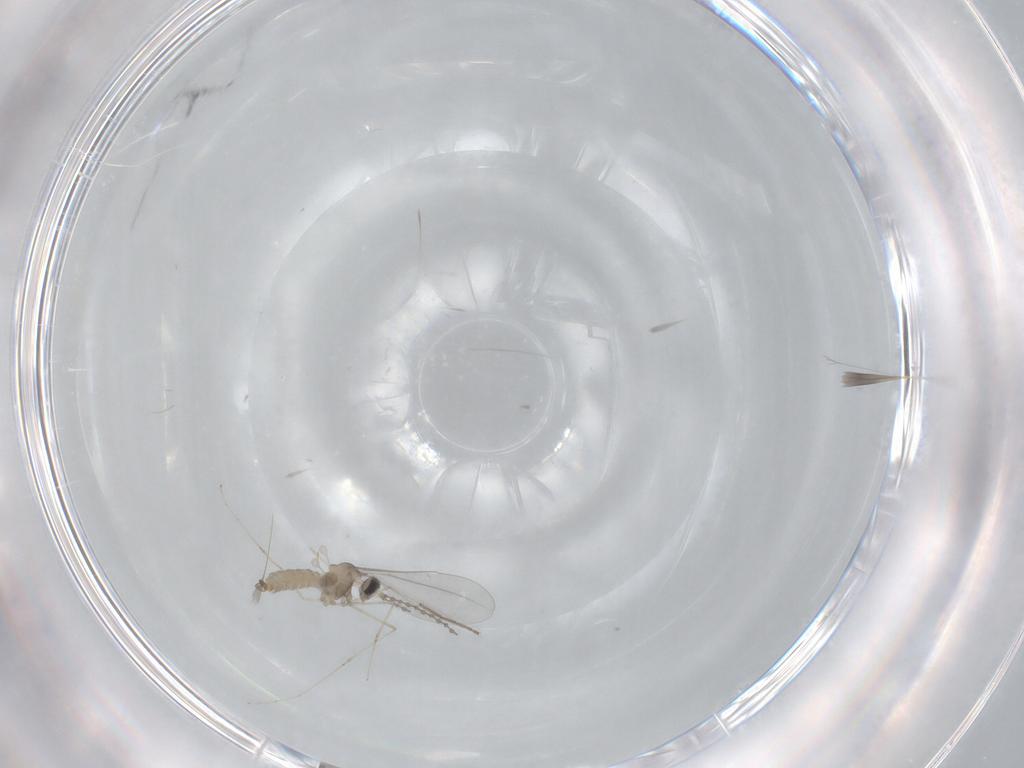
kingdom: Animalia
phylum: Arthropoda
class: Insecta
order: Diptera
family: Cecidomyiidae
